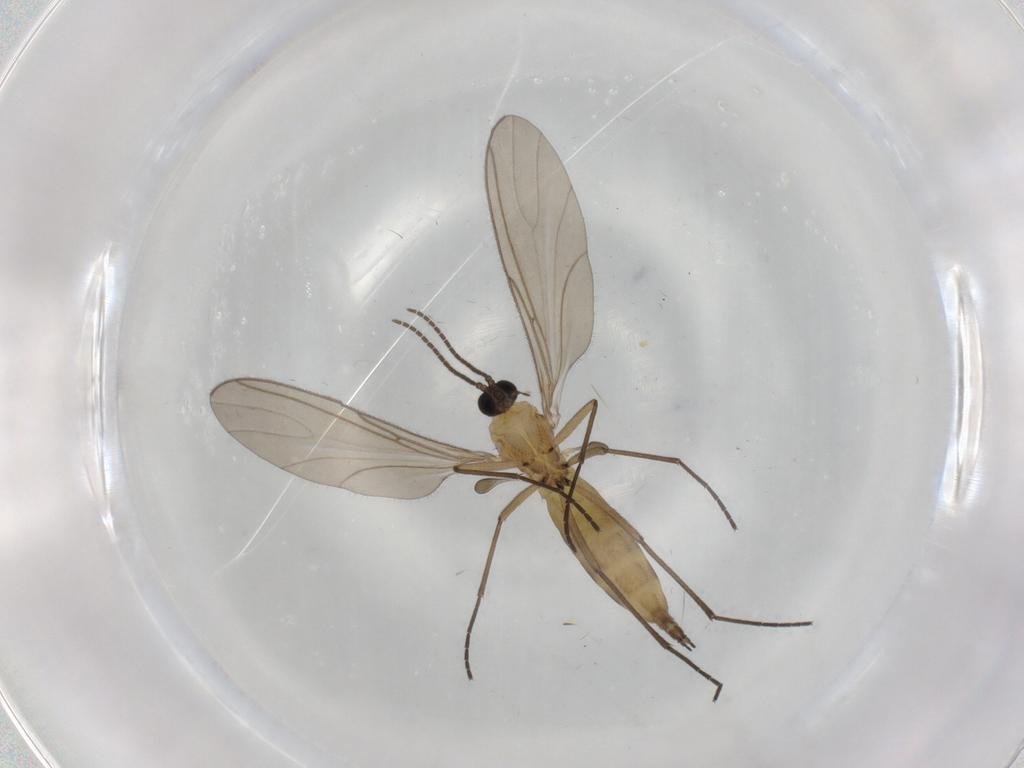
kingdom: Animalia
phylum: Arthropoda
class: Insecta
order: Diptera
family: Sciaridae
